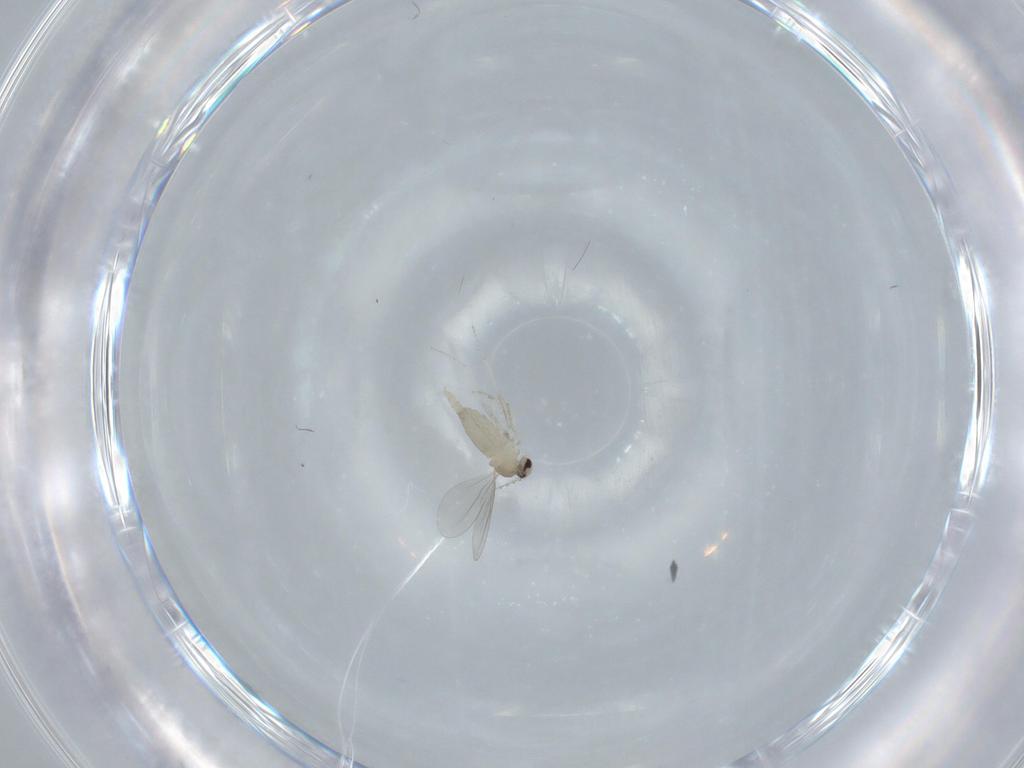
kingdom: Animalia
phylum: Arthropoda
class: Insecta
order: Diptera
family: Cecidomyiidae
